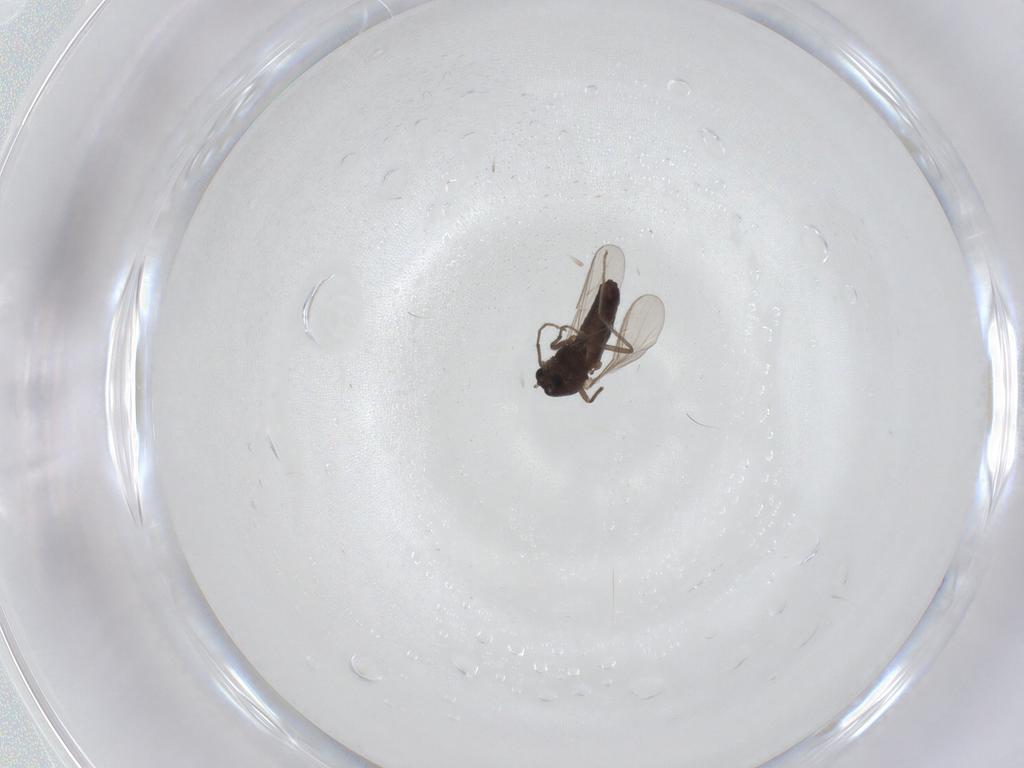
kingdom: Animalia
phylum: Arthropoda
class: Insecta
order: Diptera
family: Chironomidae
